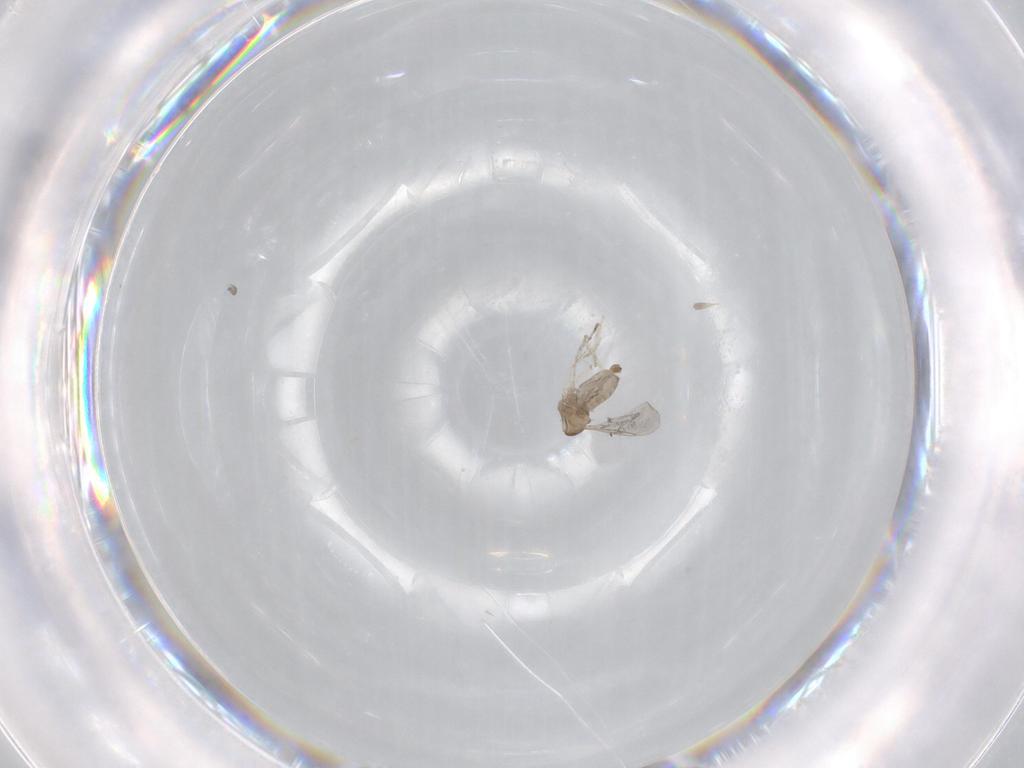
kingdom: Animalia
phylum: Arthropoda
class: Insecta
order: Diptera
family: Cecidomyiidae
